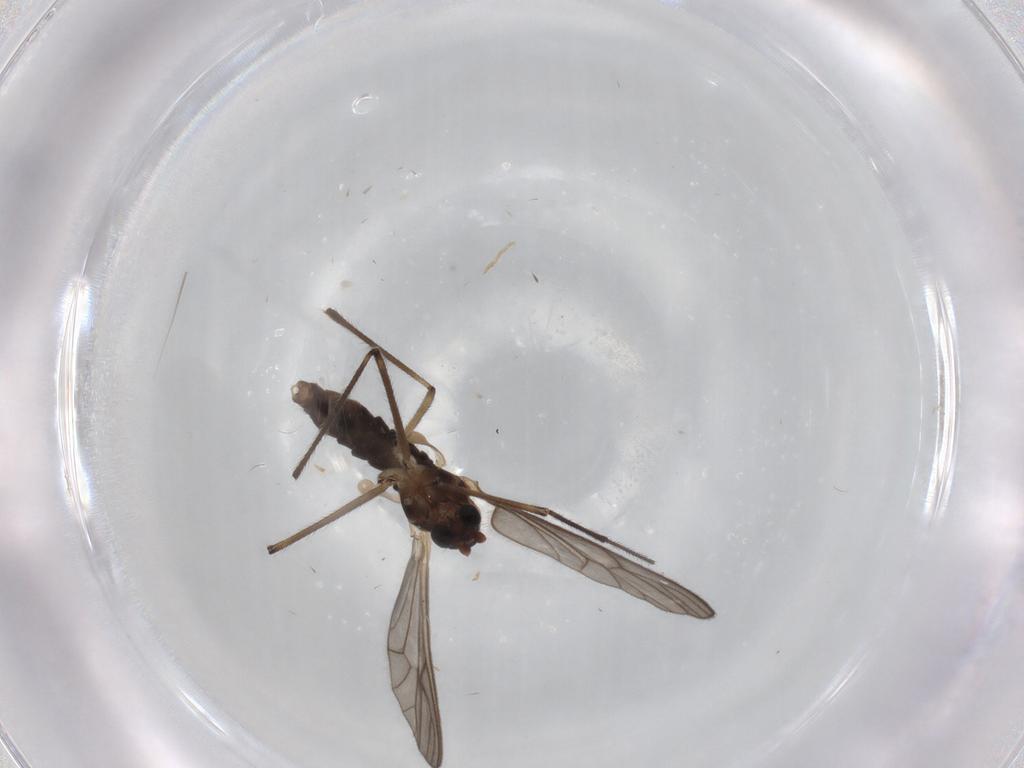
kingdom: Animalia
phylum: Arthropoda
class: Insecta
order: Diptera
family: Chironomidae
